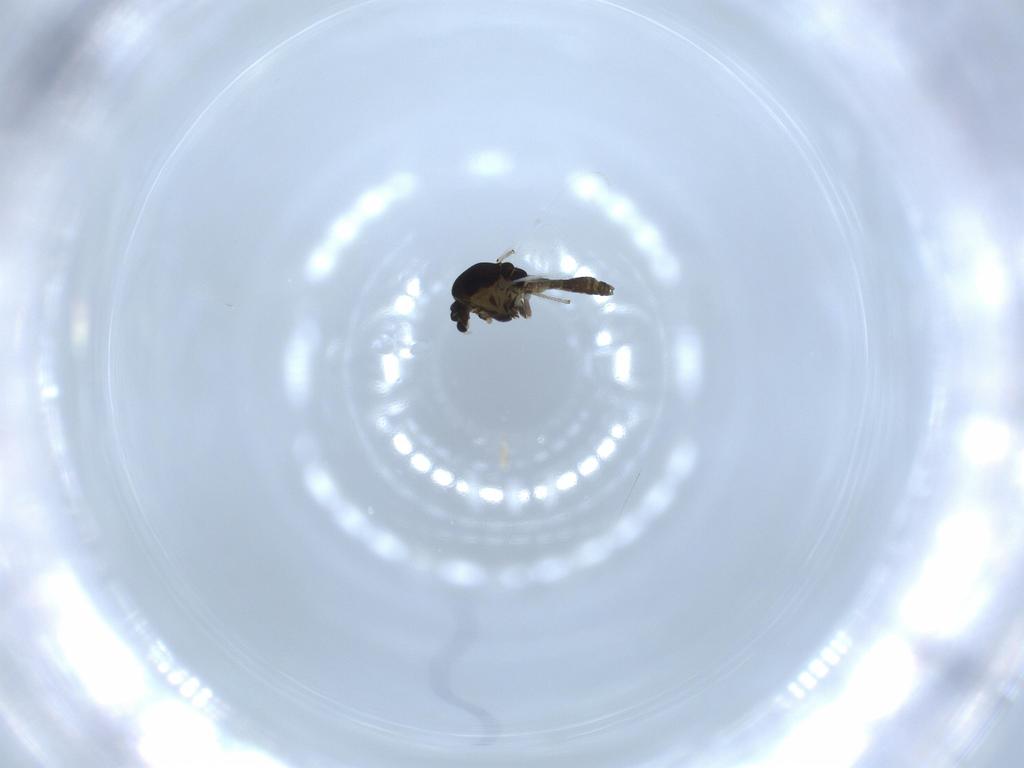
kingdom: Animalia
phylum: Arthropoda
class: Insecta
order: Diptera
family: Chironomidae
